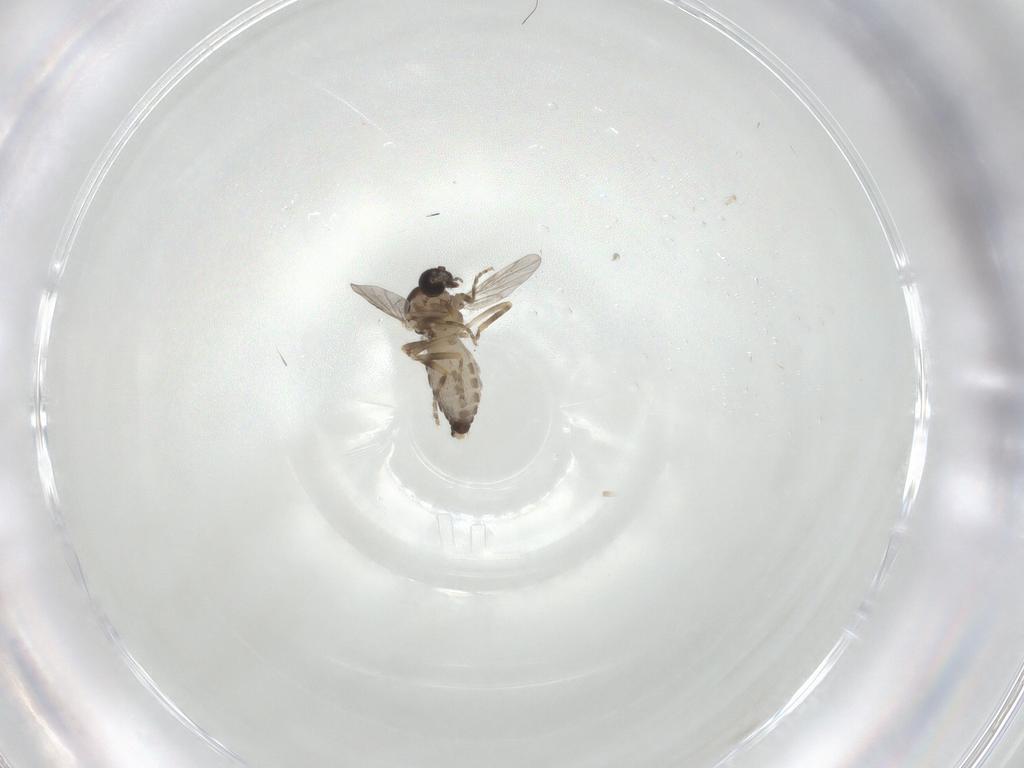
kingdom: Animalia
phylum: Arthropoda
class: Insecta
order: Diptera
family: Ceratopogonidae
